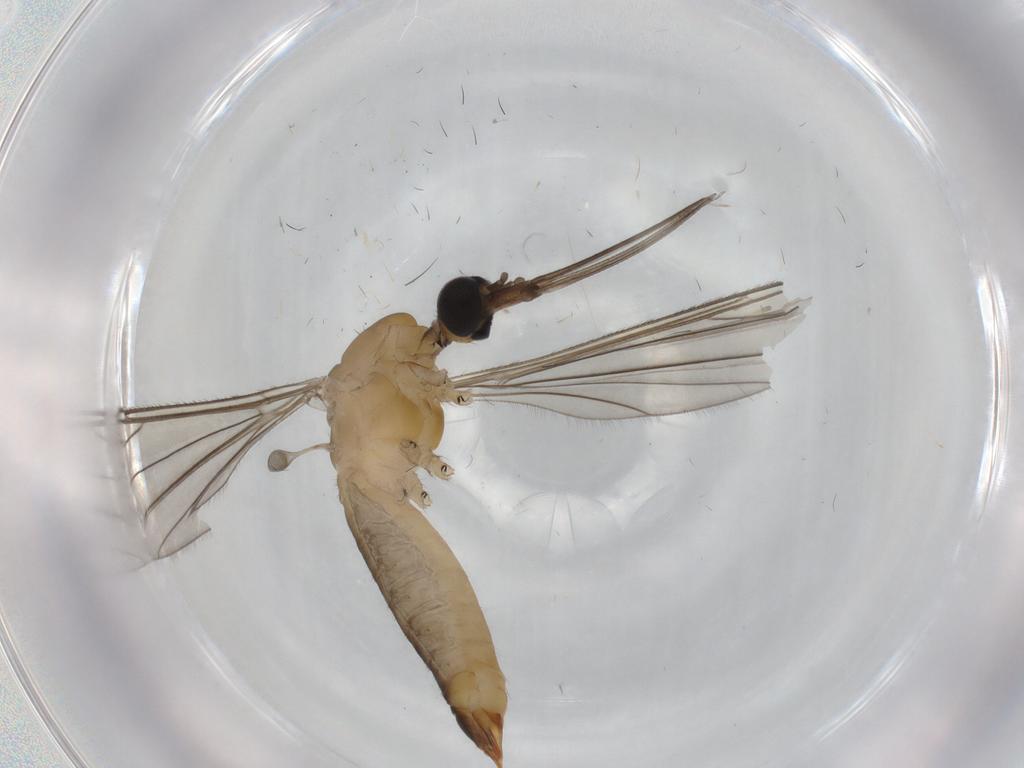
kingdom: Animalia
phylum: Arthropoda
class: Insecta
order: Diptera
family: Limoniidae
